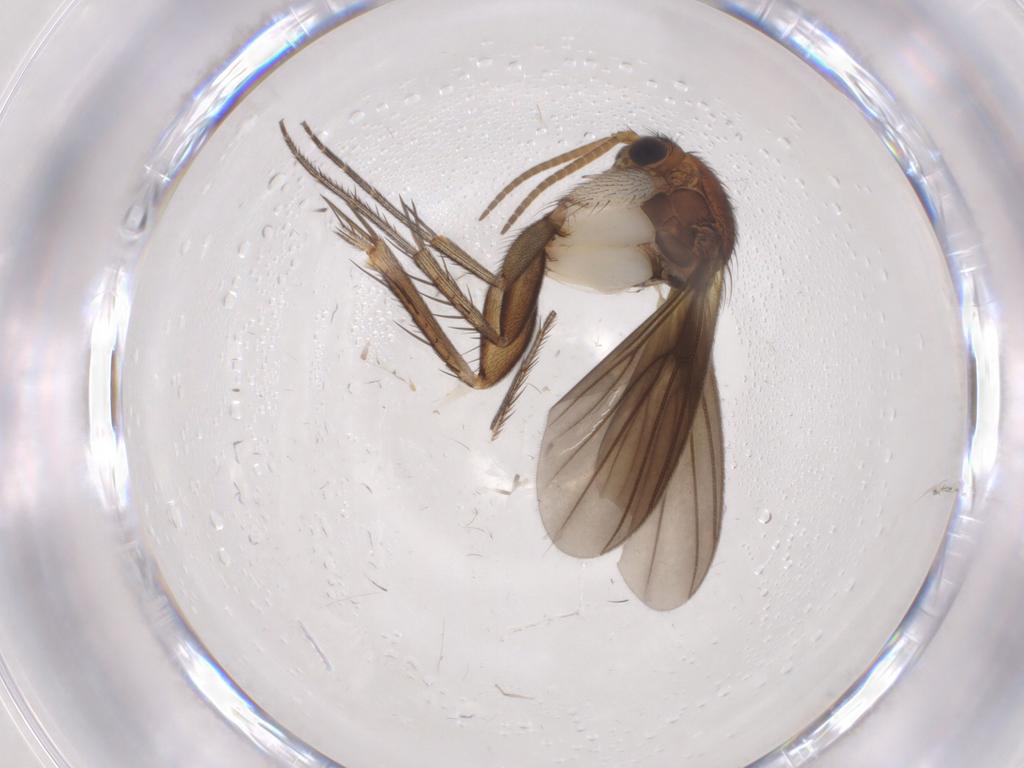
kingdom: Animalia
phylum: Arthropoda
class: Insecta
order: Diptera
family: Mycetophilidae
